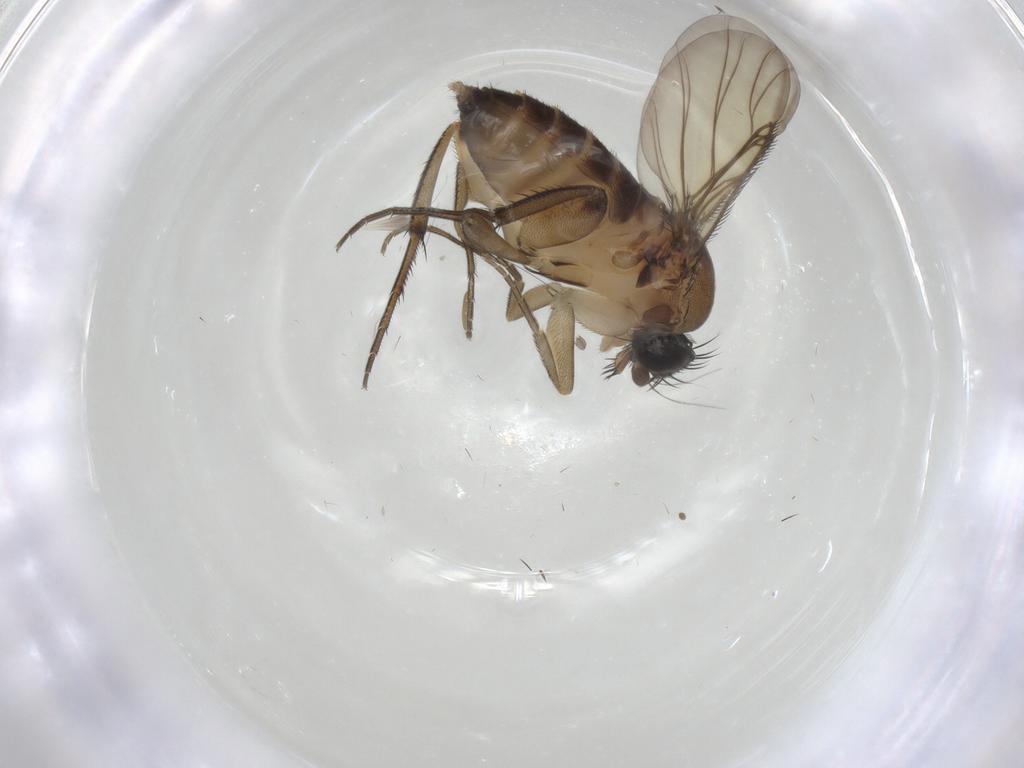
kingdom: Animalia
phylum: Arthropoda
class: Insecta
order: Diptera
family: Phoridae
